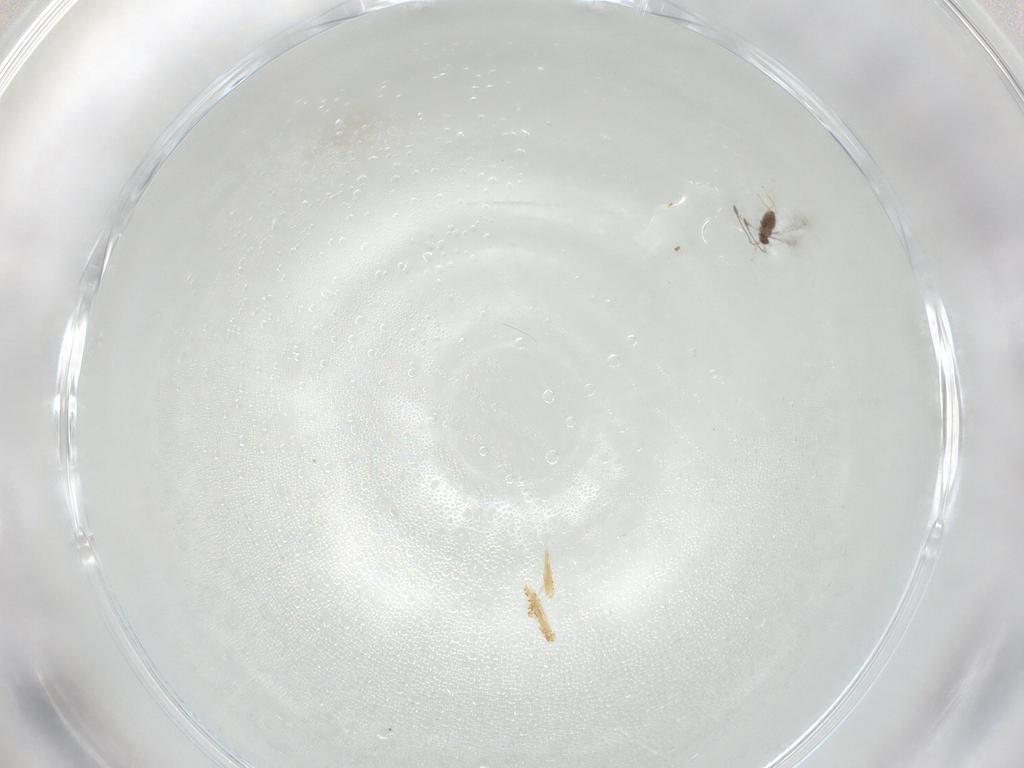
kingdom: Animalia
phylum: Arthropoda
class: Insecta
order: Hymenoptera
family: Mymaridae
